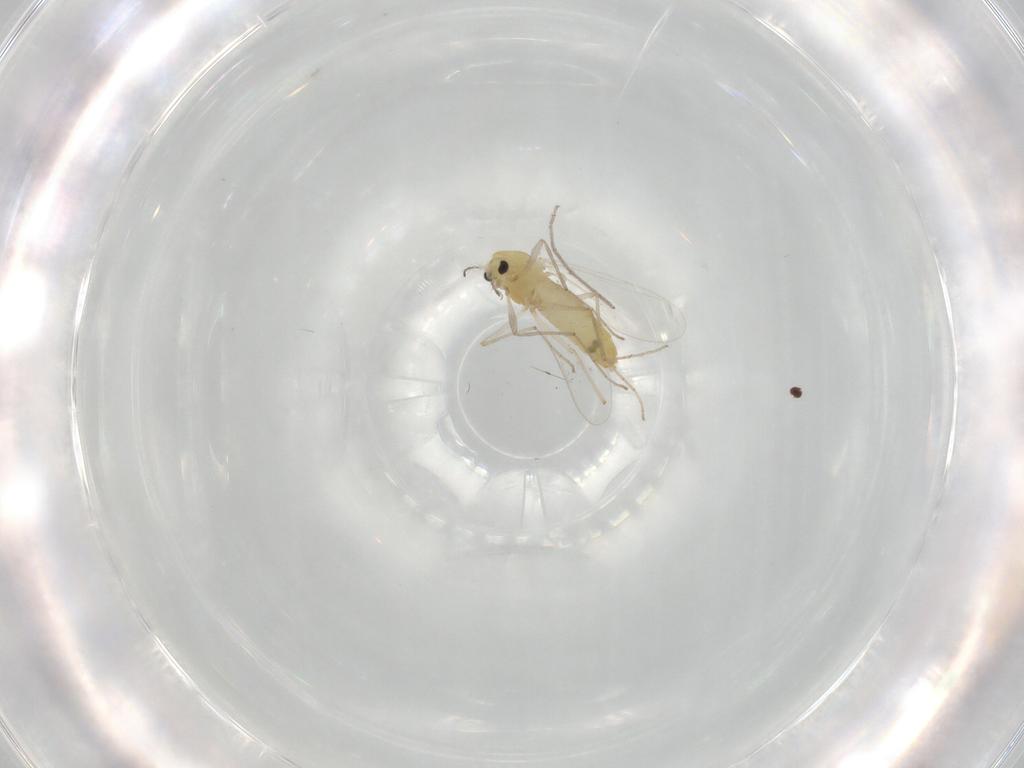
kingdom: Animalia
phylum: Arthropoda
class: Insecta
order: Diptera
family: Chironomidae
